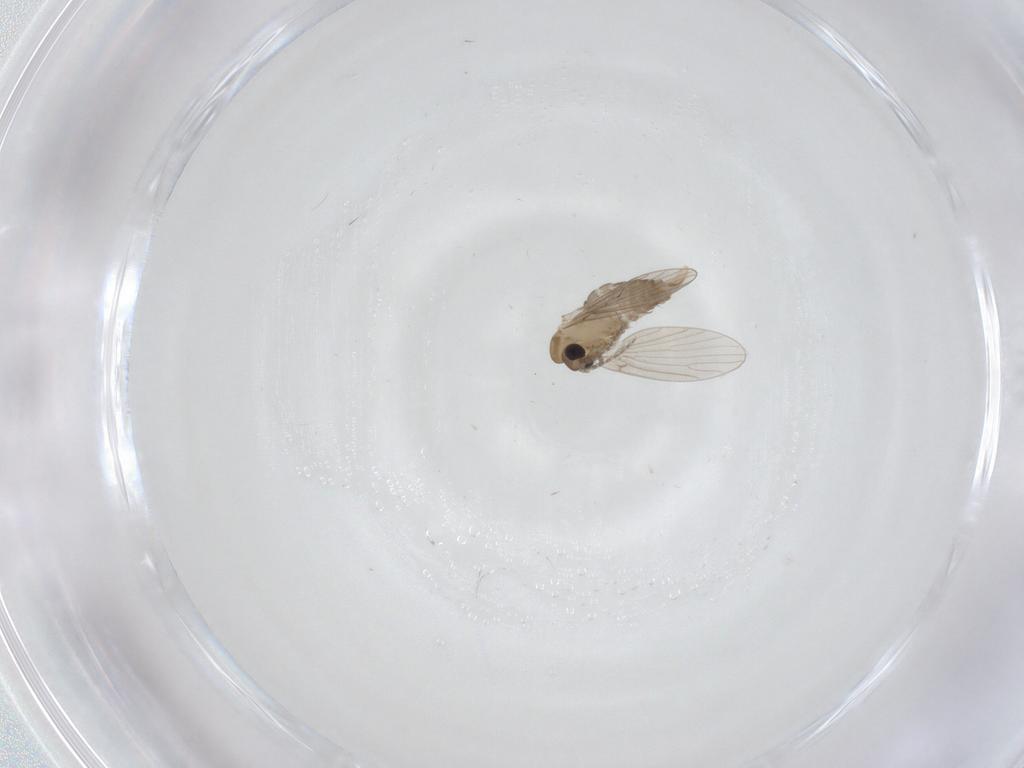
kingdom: Animalia
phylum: Arthropoda
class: Insecta
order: Diptera
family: Psychodidae
